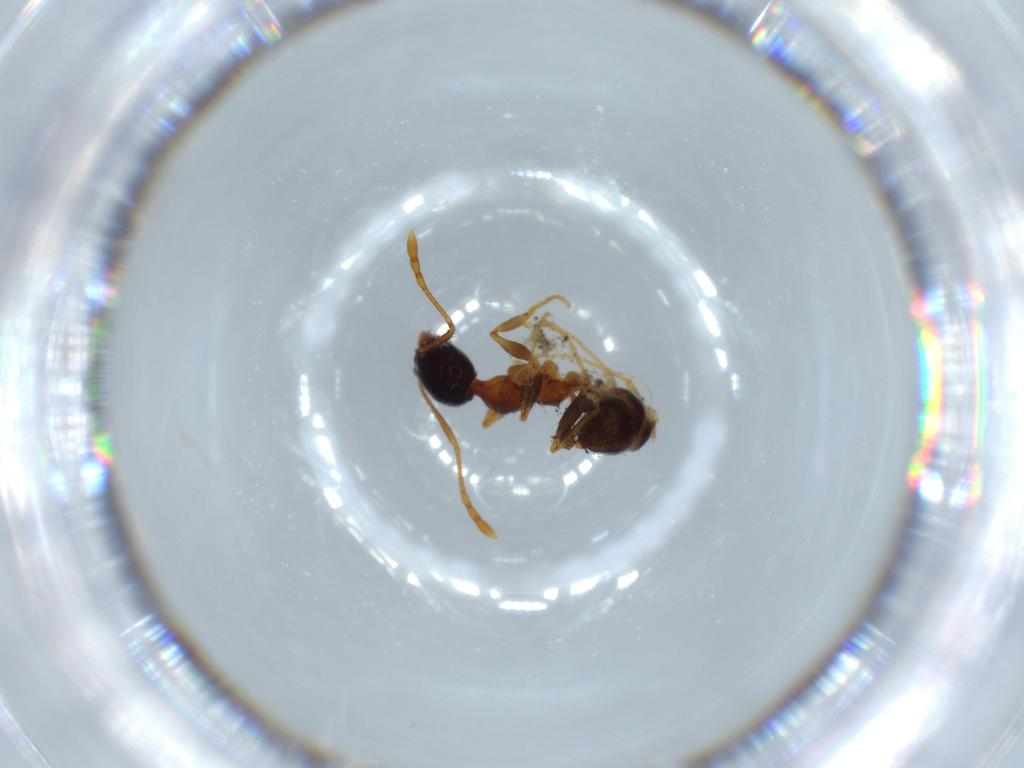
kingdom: Animalia
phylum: Arthropoda
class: Insecta
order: Hymenoptera
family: Formicidae
